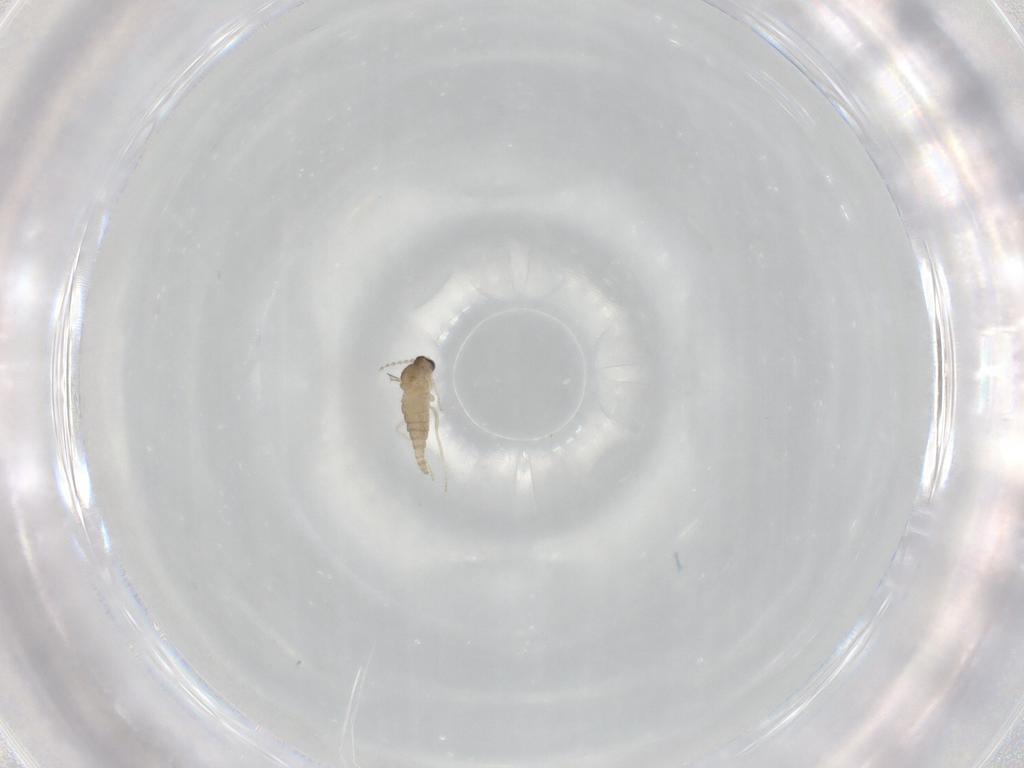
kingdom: Animalia
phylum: Arthropoda
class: Insecta
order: Diptera
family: Cecidomyiidae
